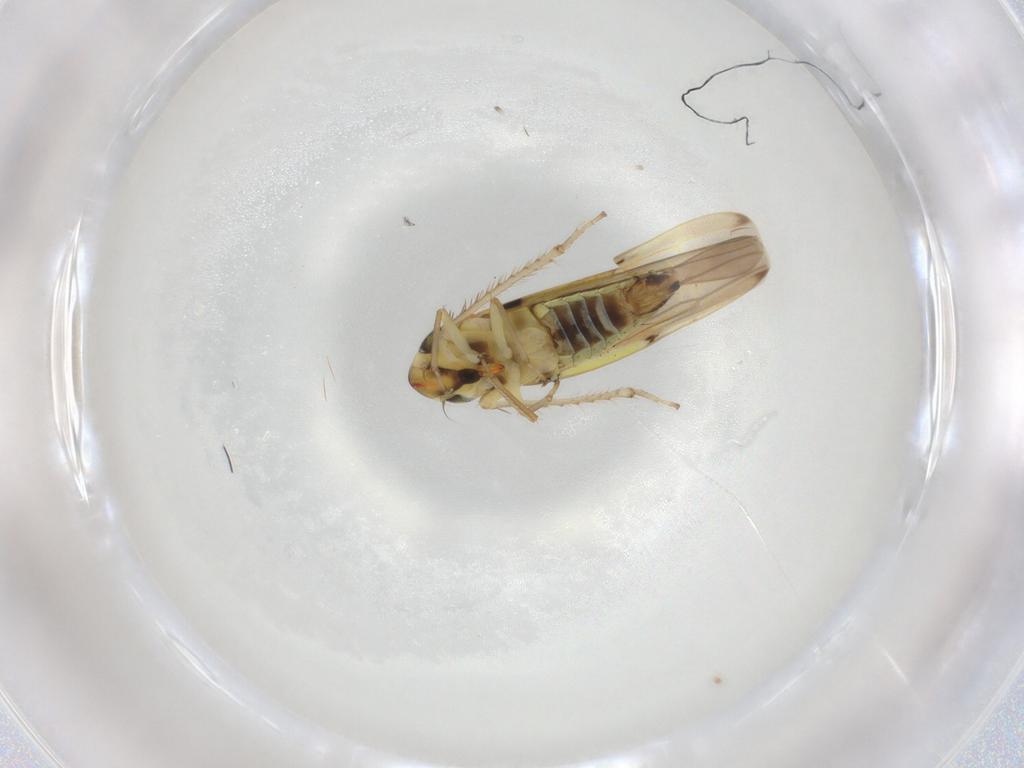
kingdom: Animalia
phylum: Arthropoda
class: Insecta
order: Hemiptera
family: Cicadellidae
